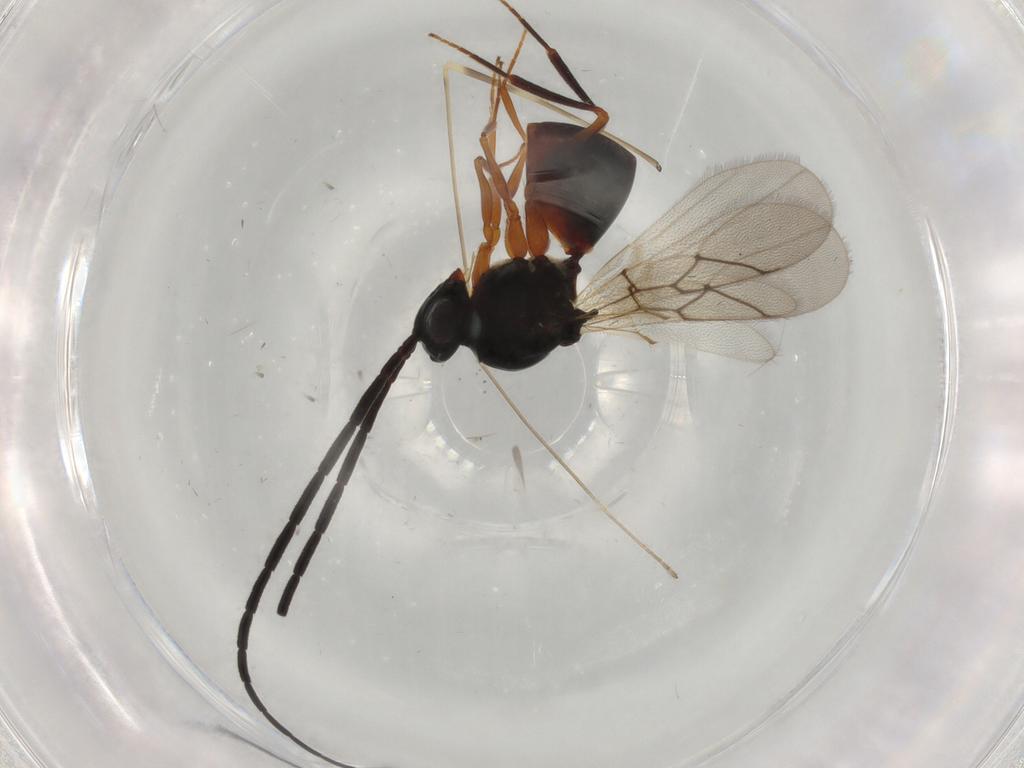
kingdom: Animalia
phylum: Arthropoda
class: Insecta
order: Hymenoptera
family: Figitidae
